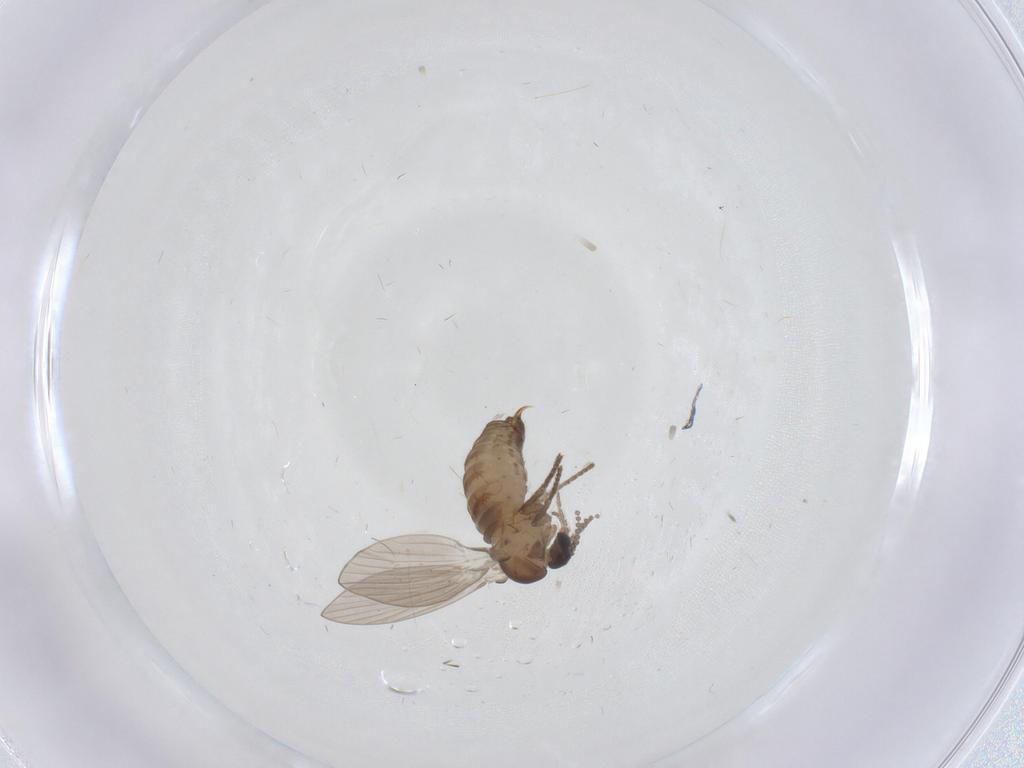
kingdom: Animalia
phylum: Arthropoda
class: Insecta
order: Diptera
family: Psychodidae
